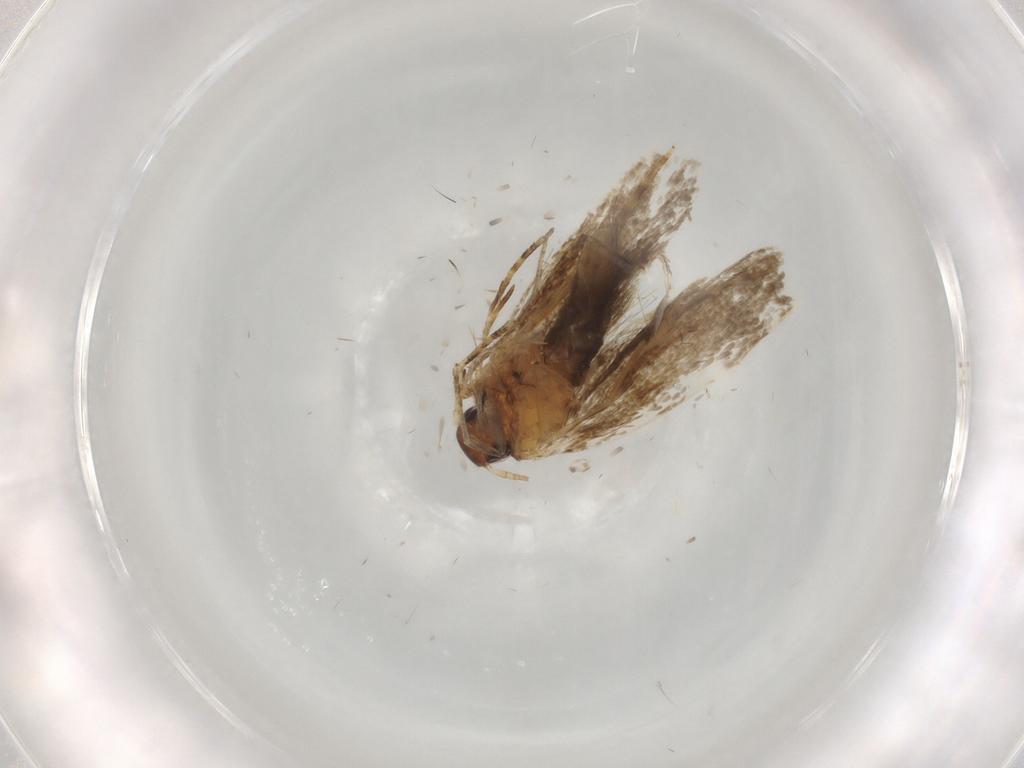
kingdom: Animalia
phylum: Arthropoda
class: Insecta
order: Lepidoptera
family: Oecophoridae
